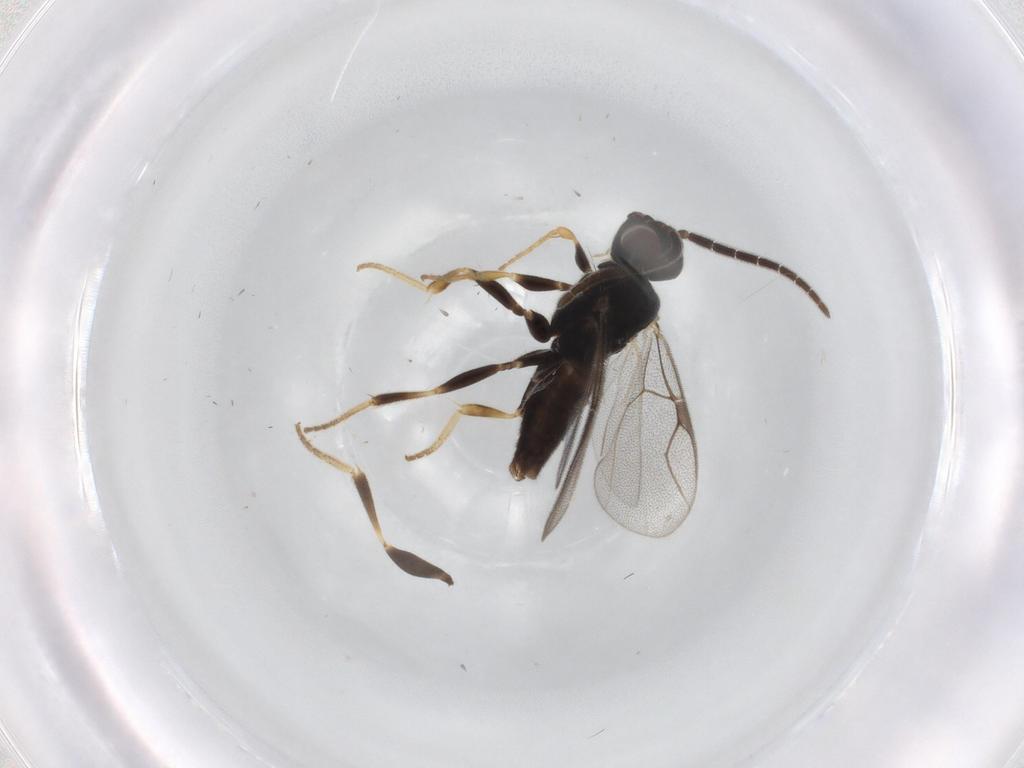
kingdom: Animalia
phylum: Arthropoda
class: Insecta
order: Hymenoptera
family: Dryinidae
